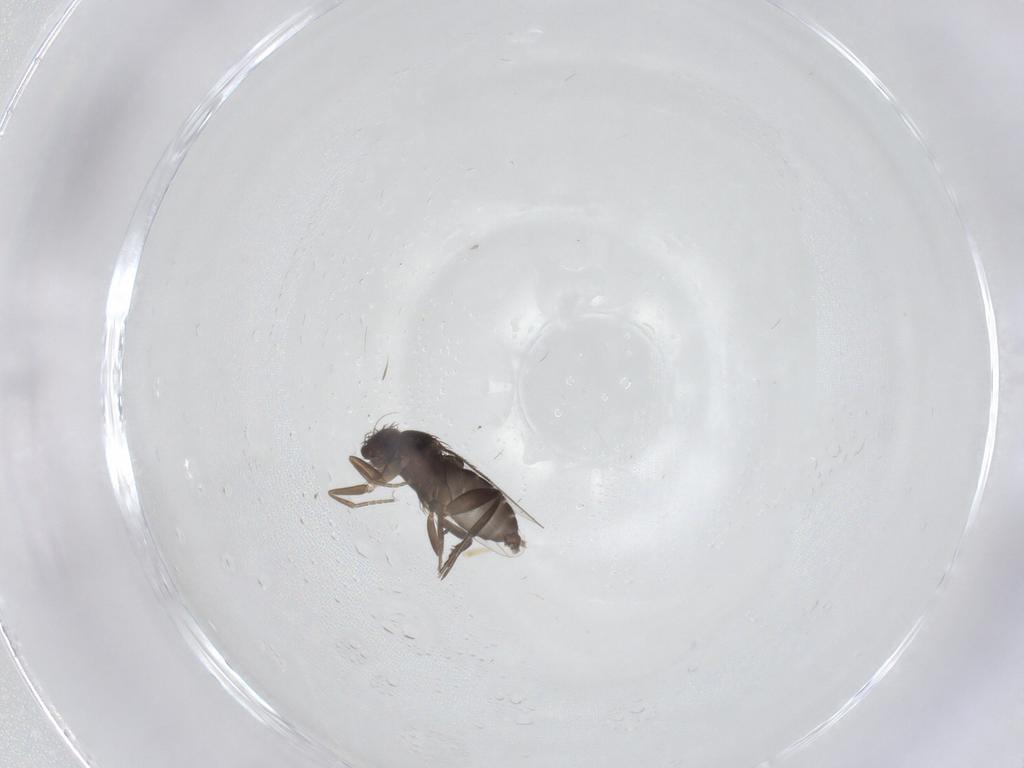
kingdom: Animalia
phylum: Arthropoda
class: Insecta
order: Diptera
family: Phoridae
